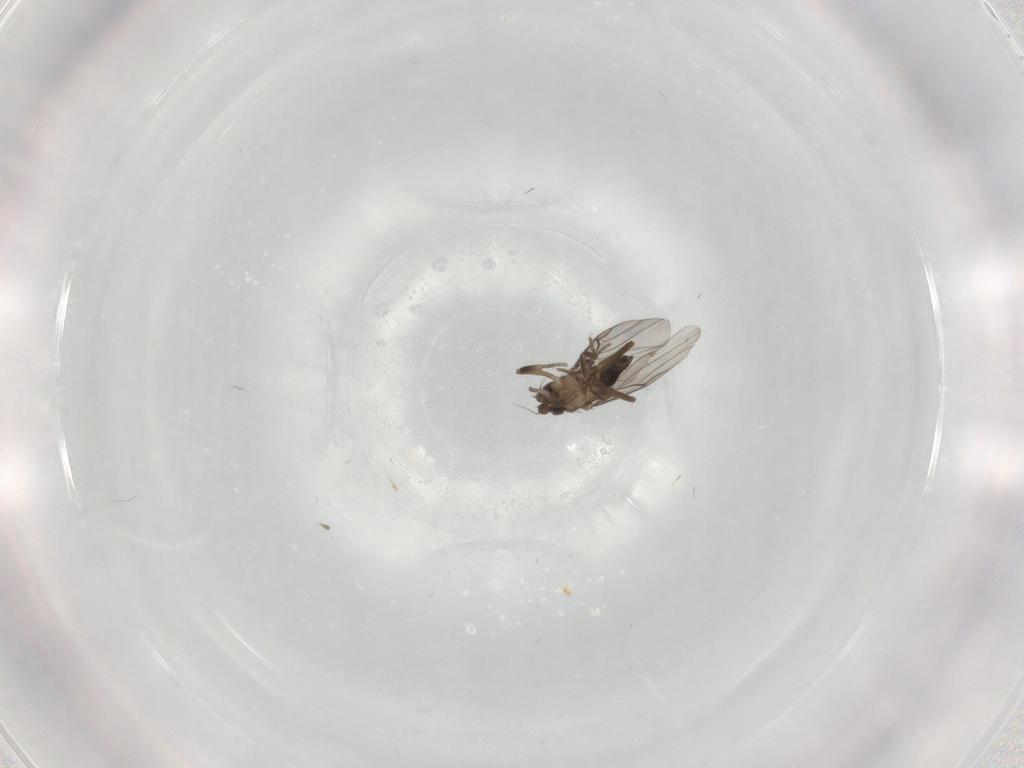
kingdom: Animalia
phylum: Arthropoda
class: Insecta
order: Diptera
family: Phoridae
